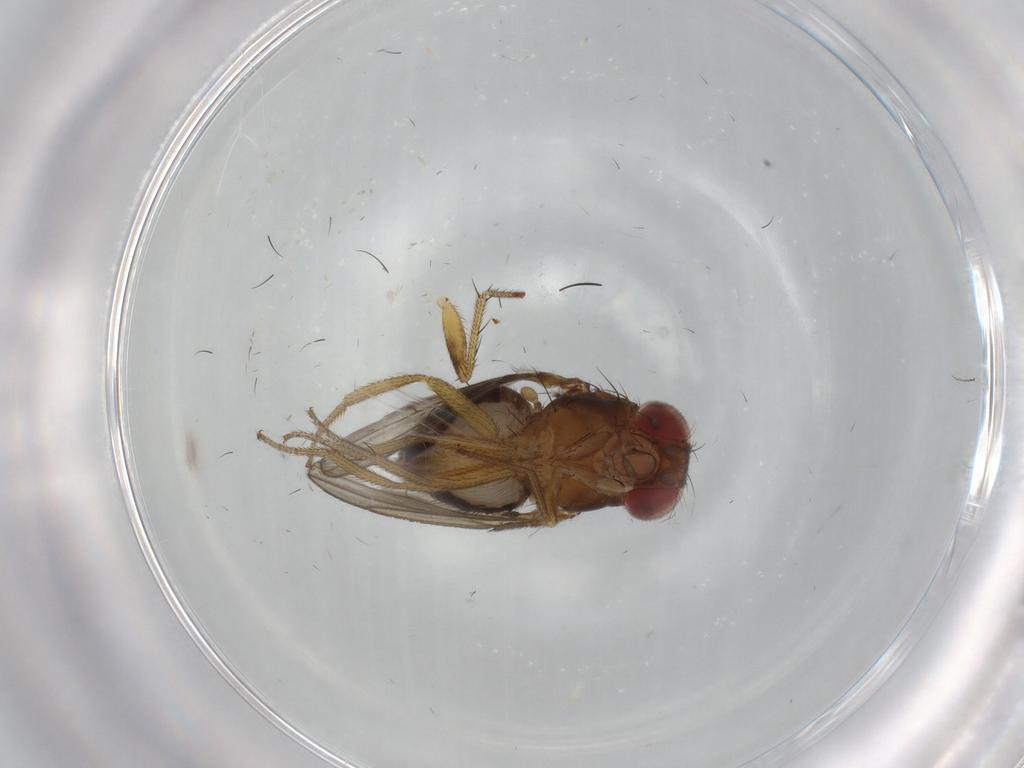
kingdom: Animalia
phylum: Arthropoda
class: Insecta
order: Diptera
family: Drosophilidae
